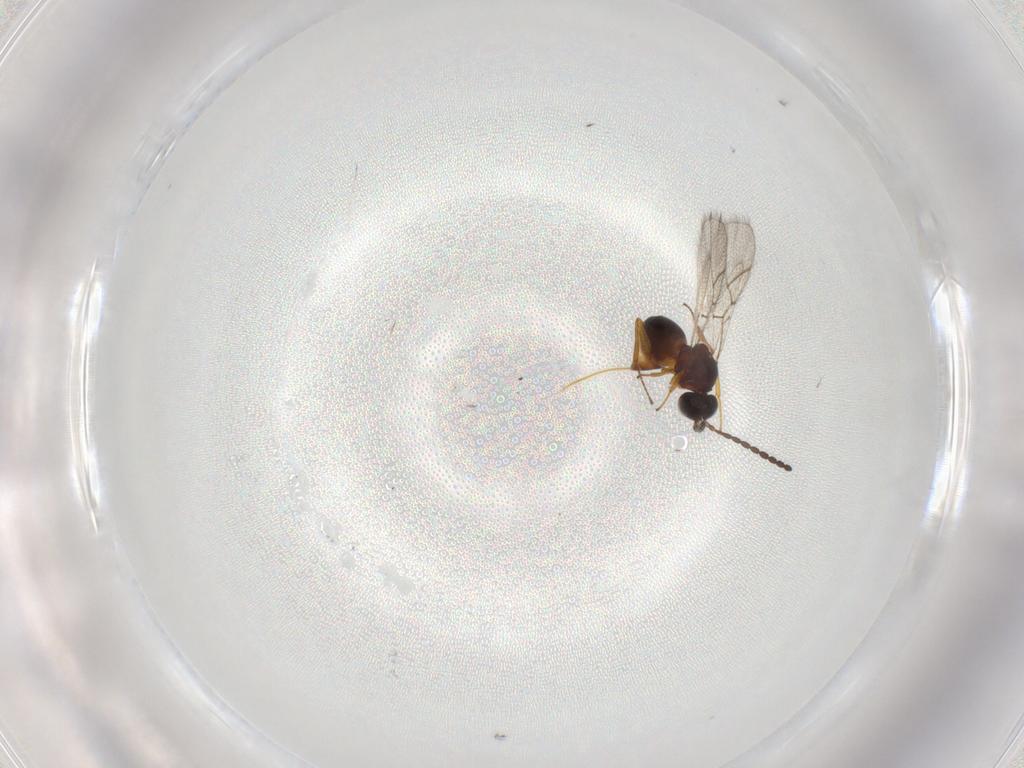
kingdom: Animalia
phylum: Arthropoda
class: Insecta
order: Hymenoptera
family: Figitidae
